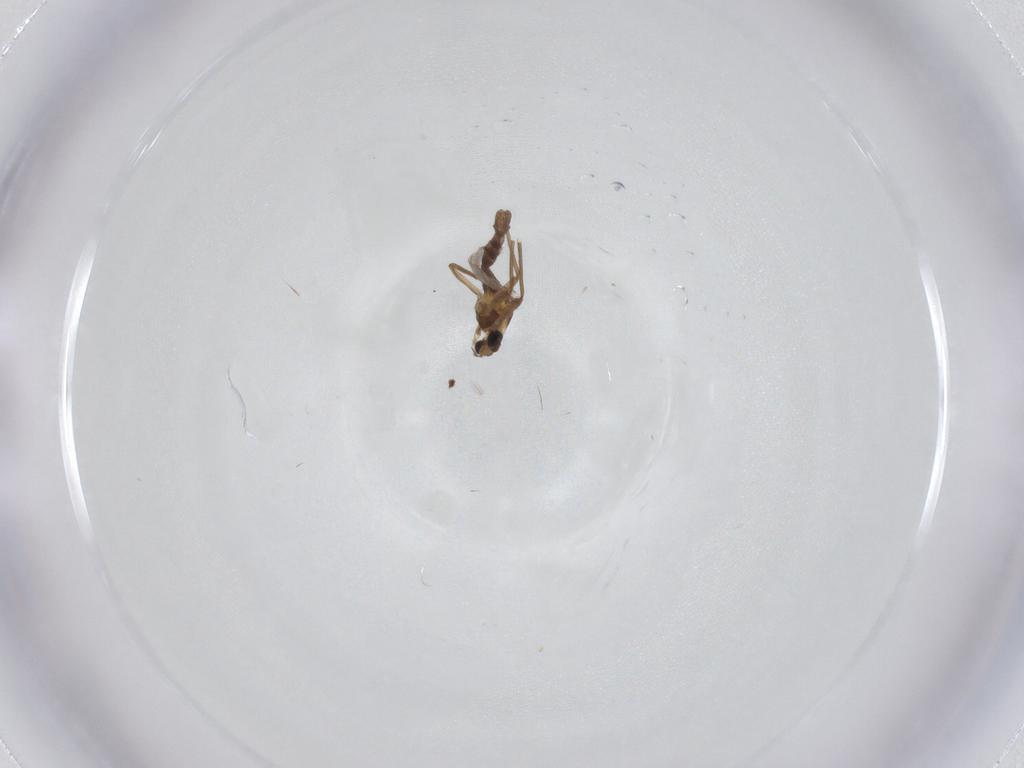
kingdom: Animalia
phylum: Arthropoda
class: Insecta
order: Diptera
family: Chironomidae
